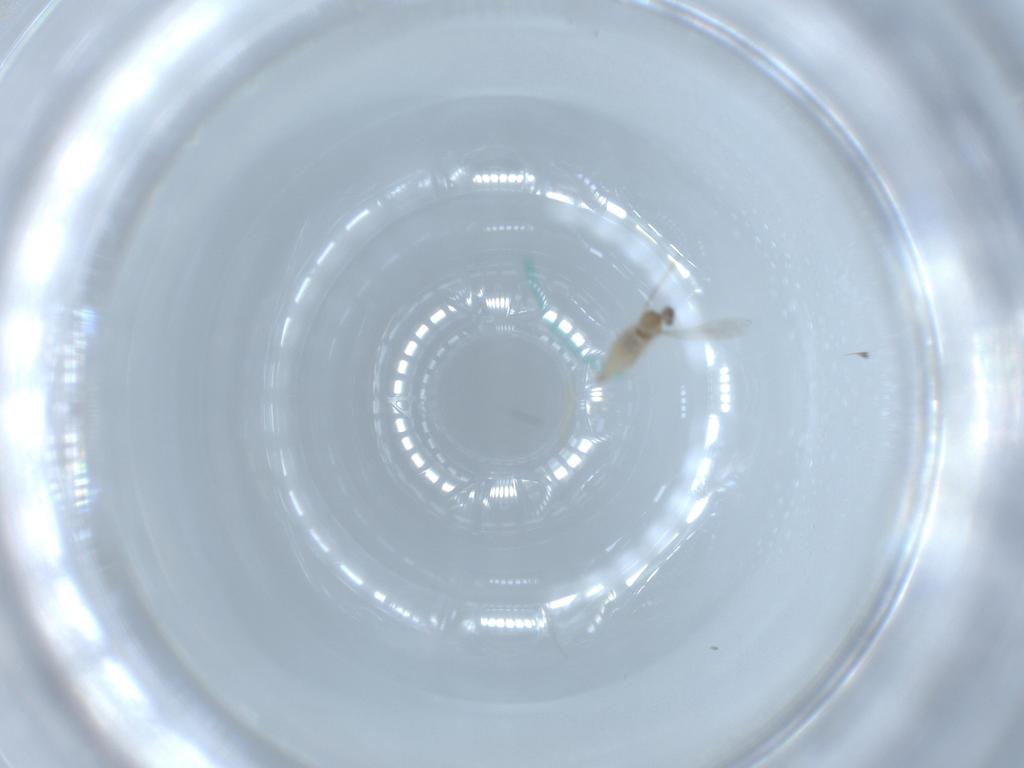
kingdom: Animalia
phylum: Arthropoda
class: Insecta
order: Diptera
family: Cecidomyiidae
